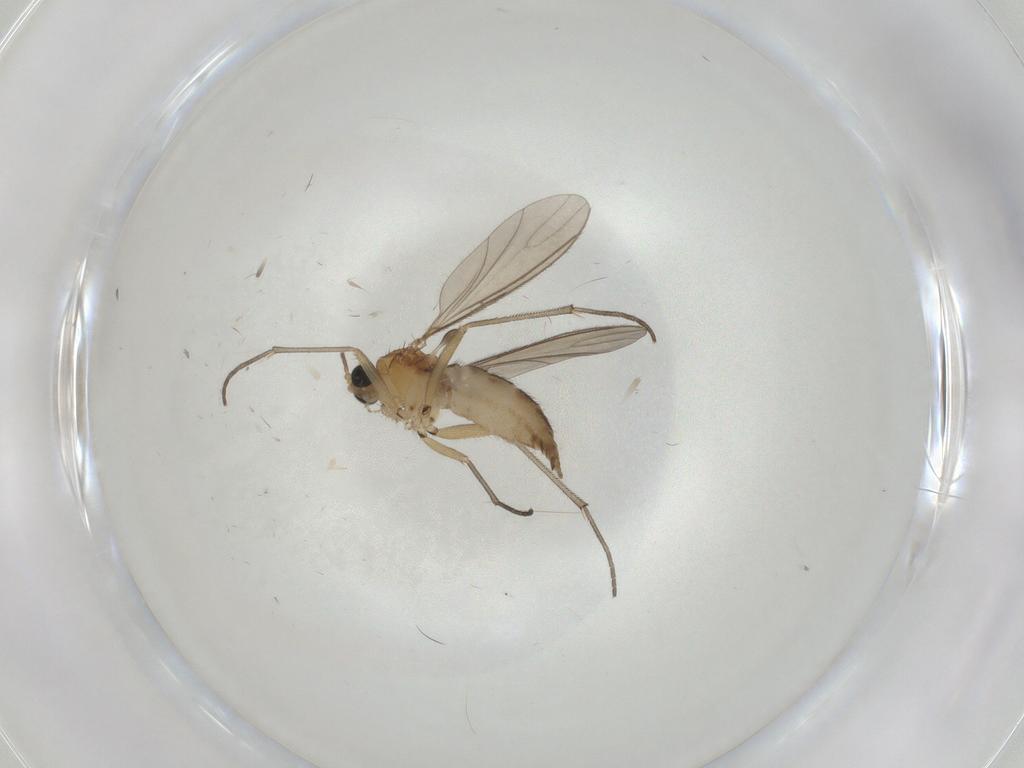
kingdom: Animalia
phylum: Arthropoda
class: Insecta
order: Diptera
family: Sepsidae
